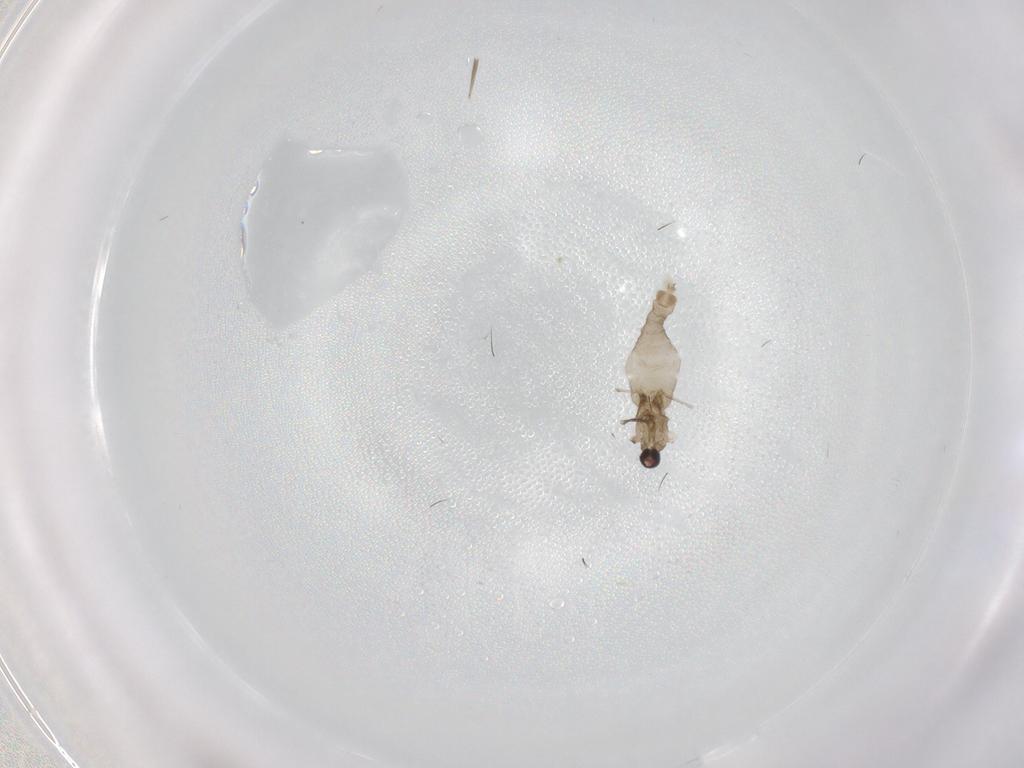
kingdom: Animalia
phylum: Arthropoda
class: Insecta
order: Diptera
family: Cecidomyiidae
